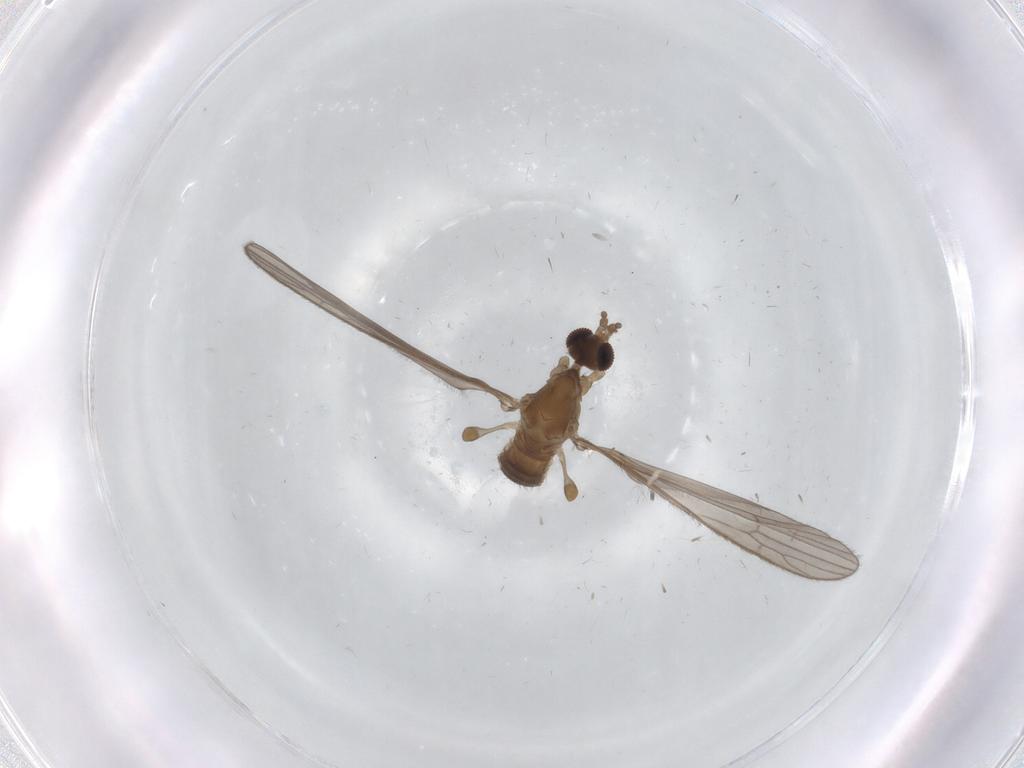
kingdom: Animalia
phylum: Arthropoda
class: Insecta
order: Diptera
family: Limoniidae
